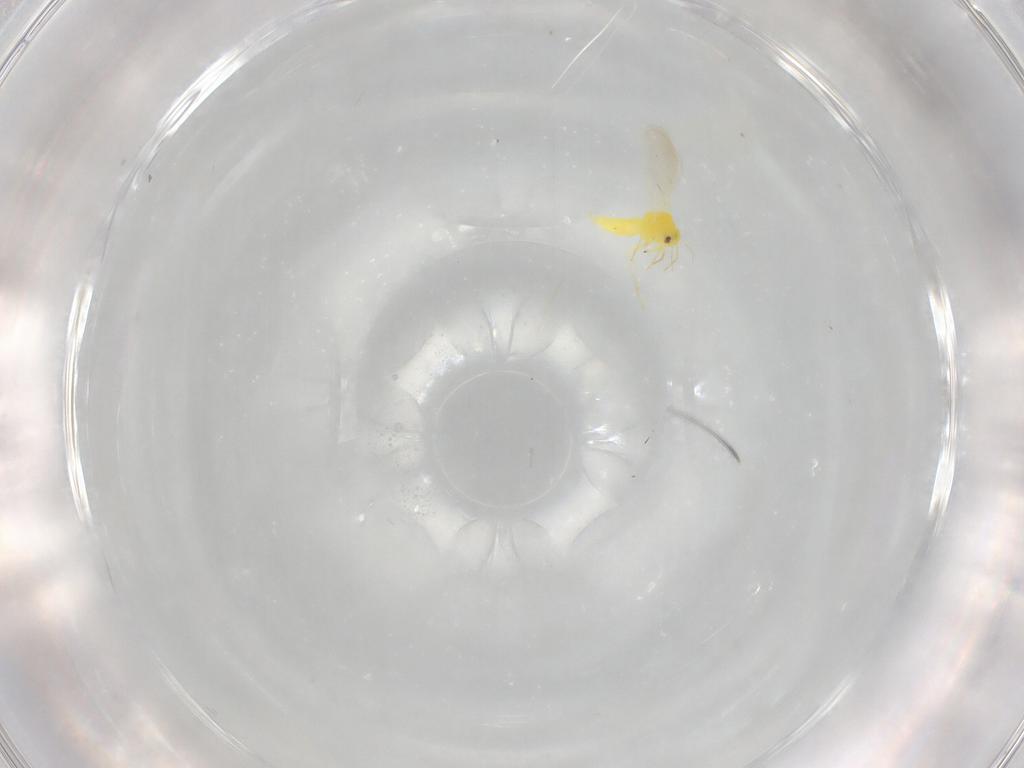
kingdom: Animalia
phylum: Arthropoda
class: Insecta
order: Hemiptera
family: Aleyrodidae
